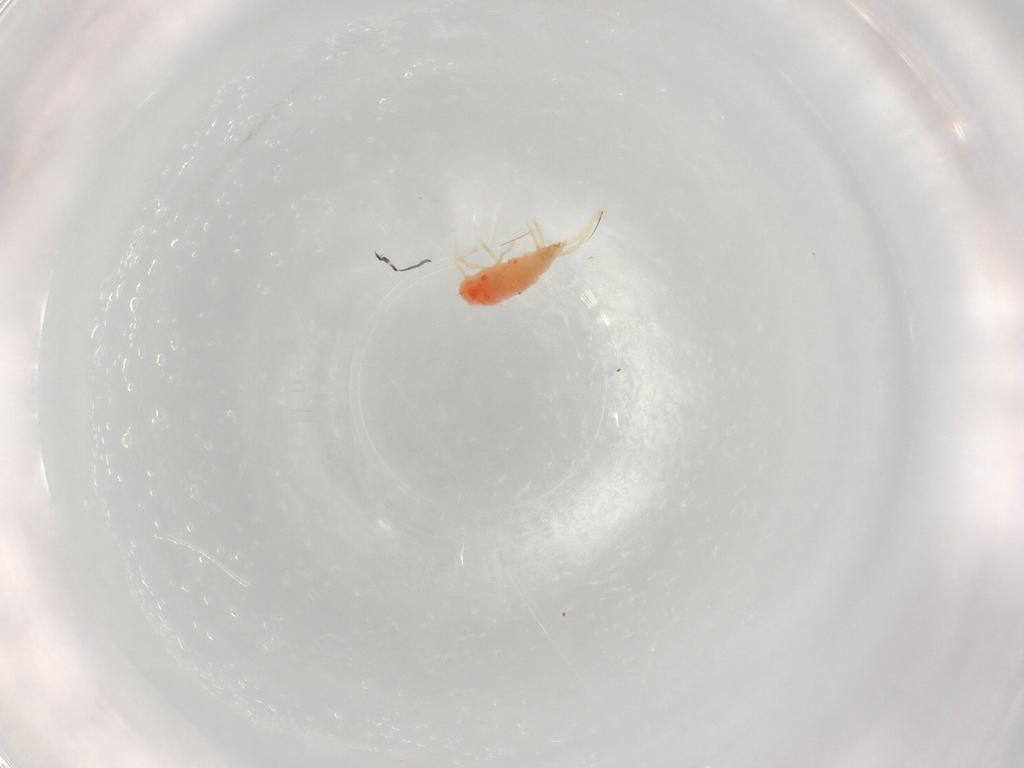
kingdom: Animalia
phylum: Arthropoda
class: Arachnida
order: Trombidiformes
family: Erythraeidae
